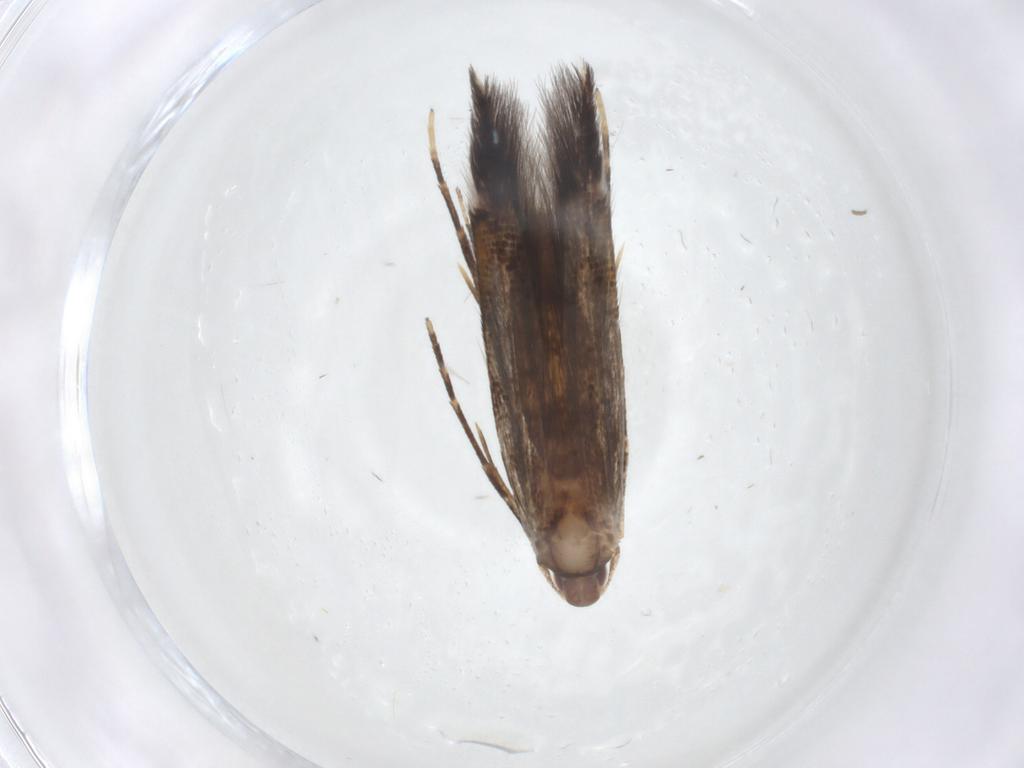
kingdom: Animalia
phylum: Arthropoda
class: Insecta
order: Lepidoptera
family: Cosmopterigidae
